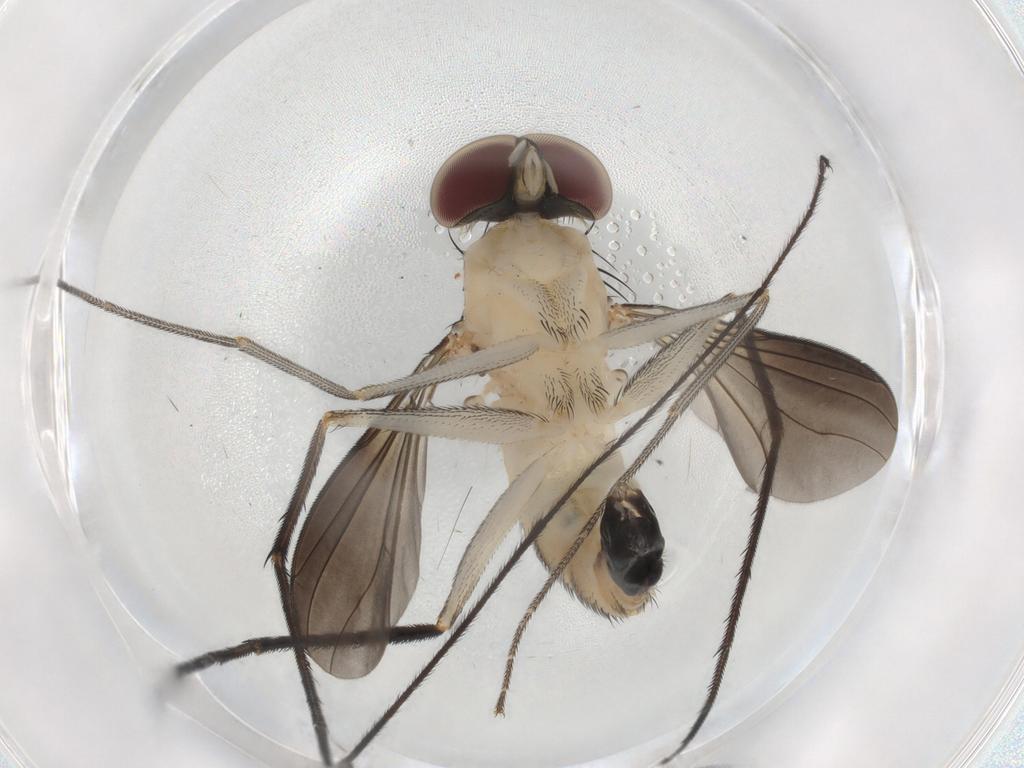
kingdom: Animalia
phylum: Arthropoda
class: Insecta
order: Diptera
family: Dolichopodidae
